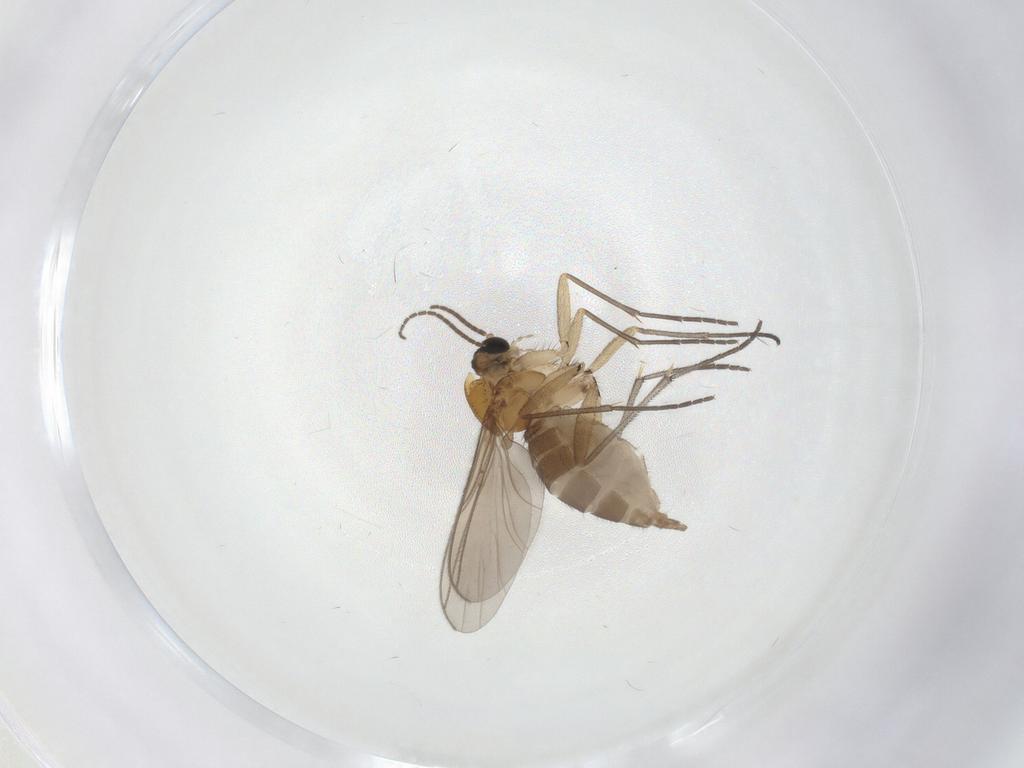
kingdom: Animalia
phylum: Arthropoda
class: Insecta
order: Diptera
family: Sciaridae
